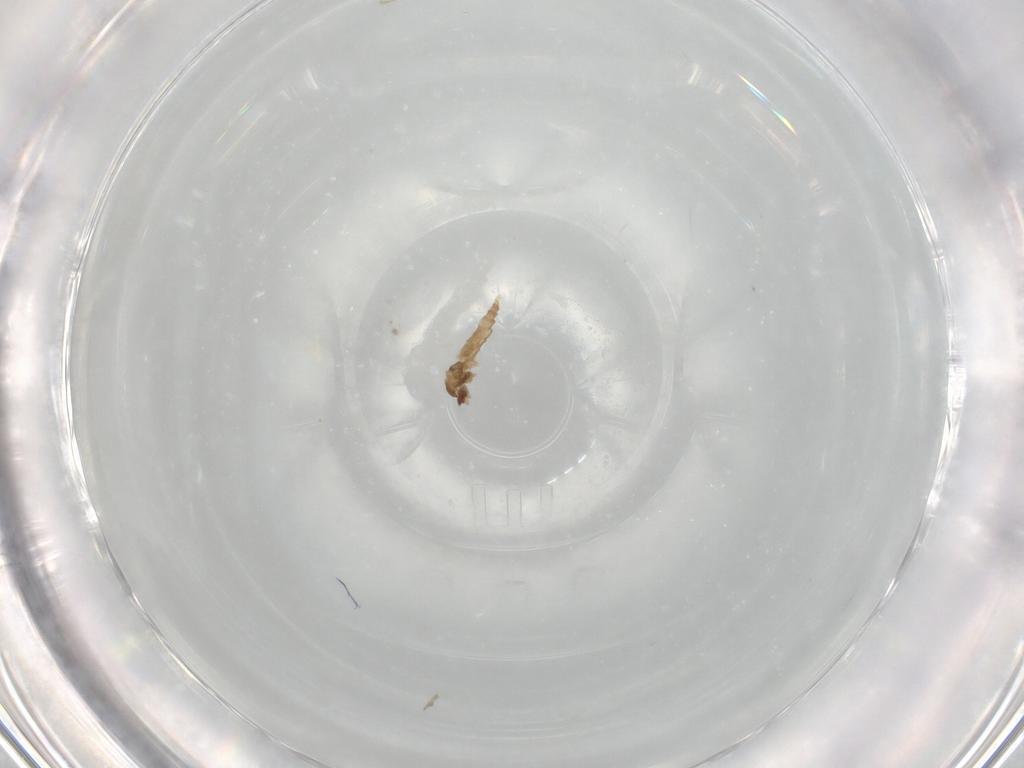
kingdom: Animalia
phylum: Arthropoda
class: Insecta
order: Diptera
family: Cecidomyiidae
